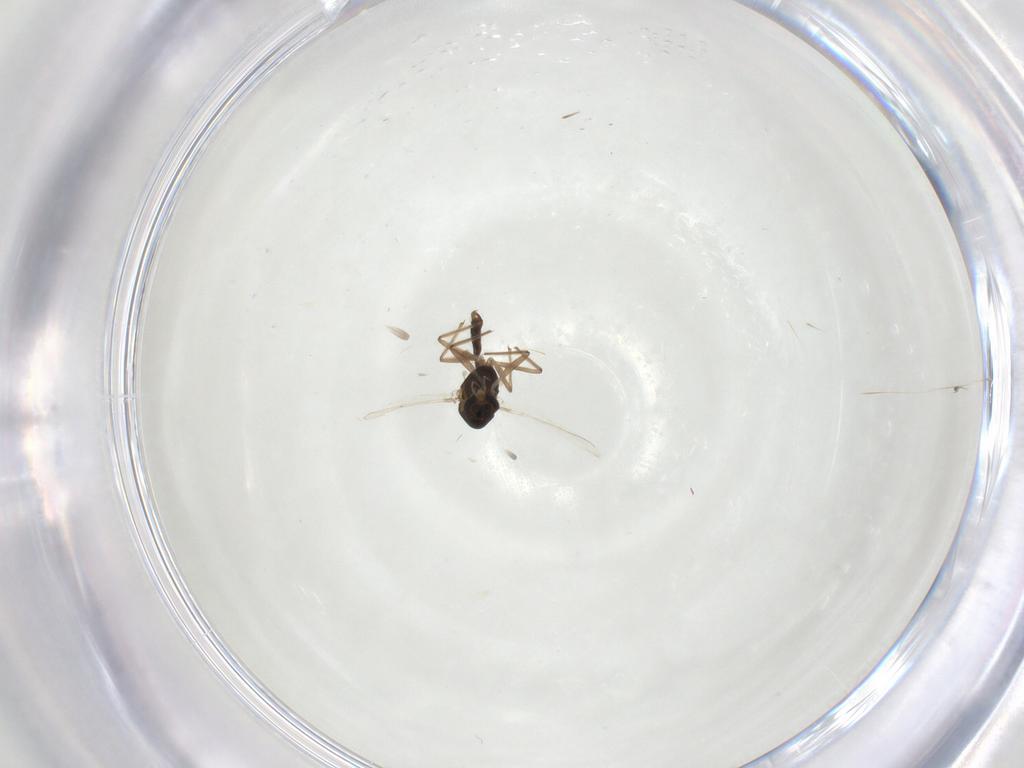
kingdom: Animalia
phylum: Arthropoda
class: Insecta
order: Diptera
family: Chironomidae
